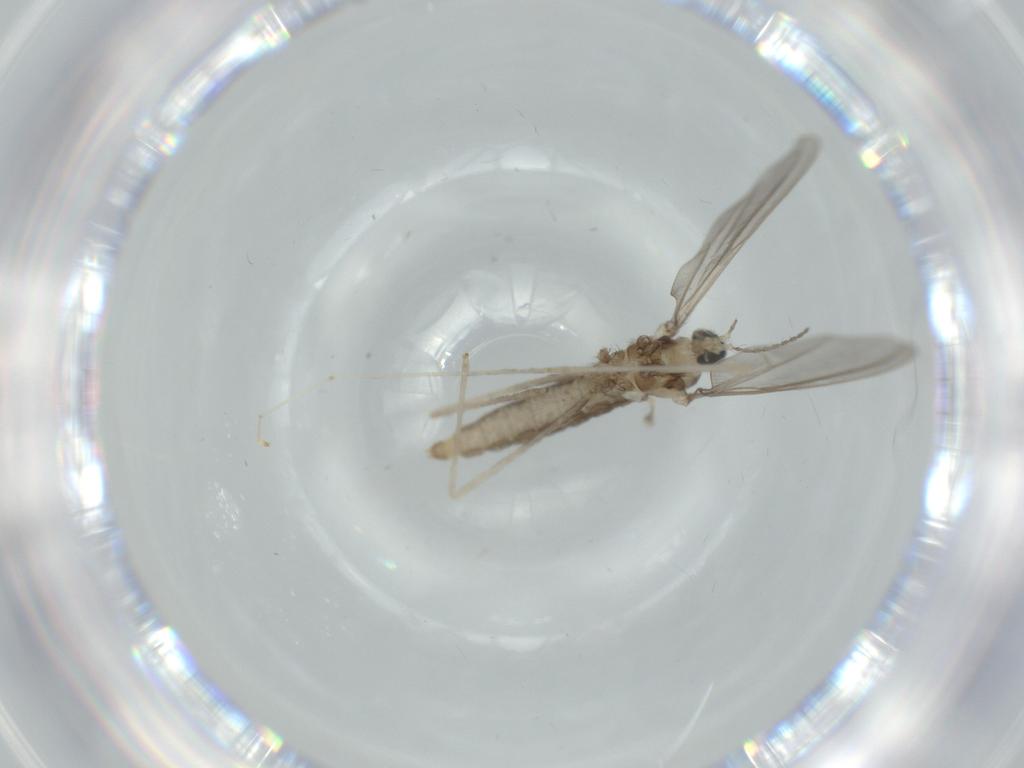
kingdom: Animalia
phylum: Arthropoda
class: Insecta
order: Diptera
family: Cecidomyiidae
